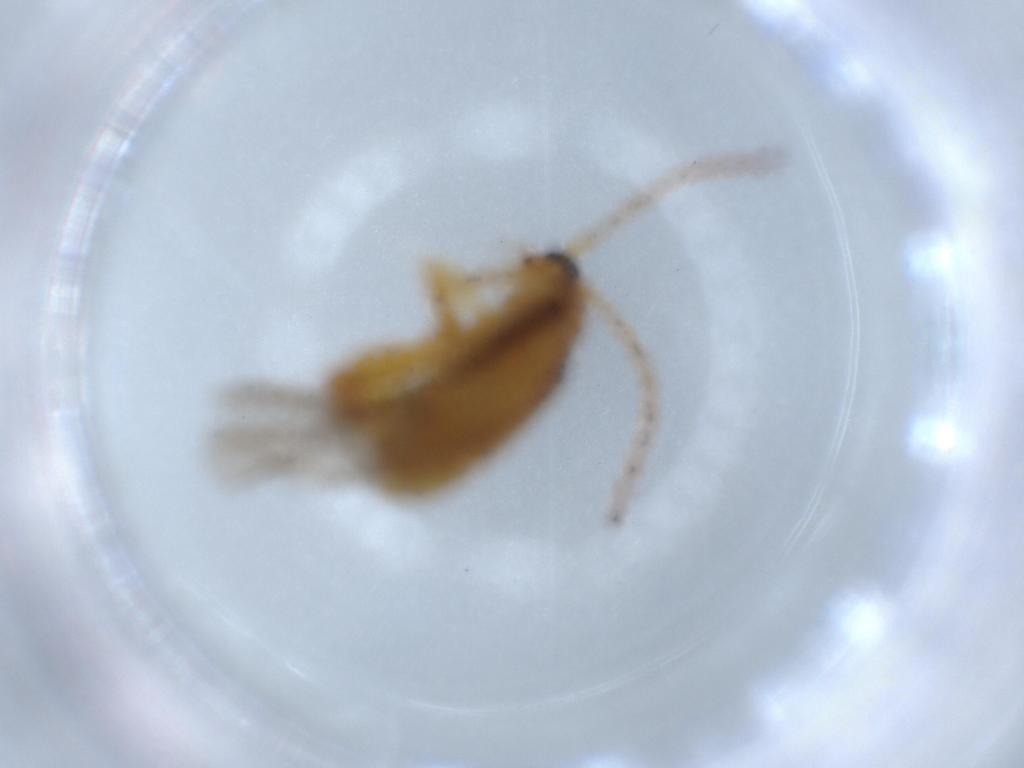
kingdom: Animalia
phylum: Arthropoda
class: Insecta
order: Coleoptera
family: Chrysomelidae
